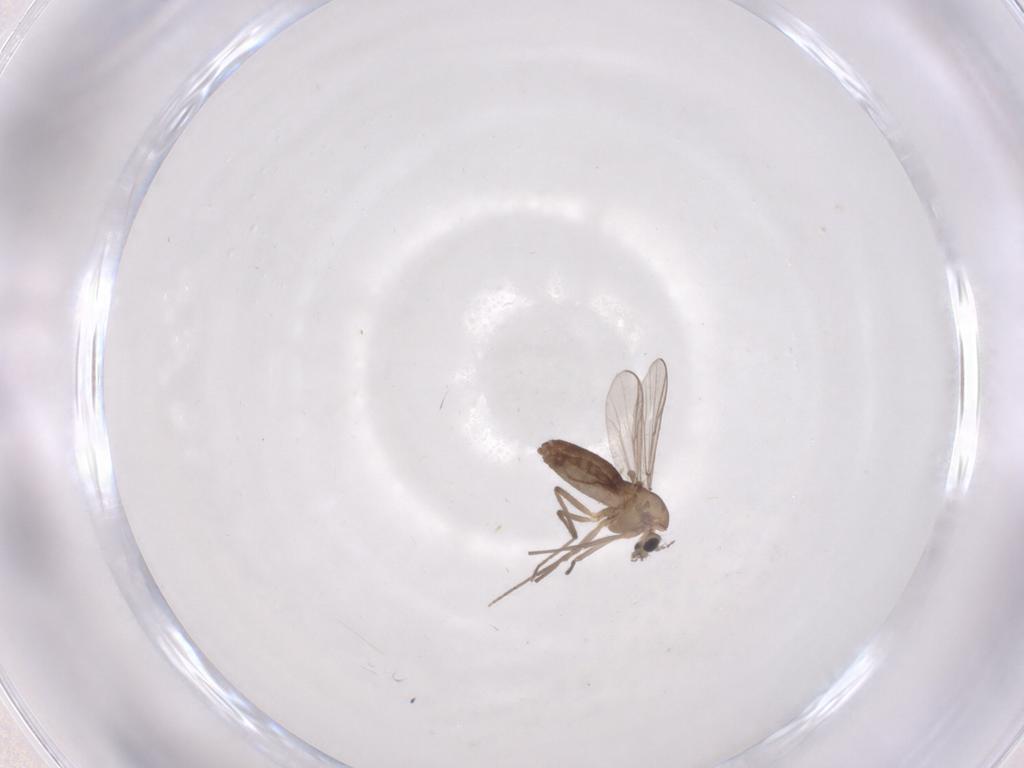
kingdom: Animalia
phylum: Arthropoda
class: Insecta
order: Diptera
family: Chironomidae
